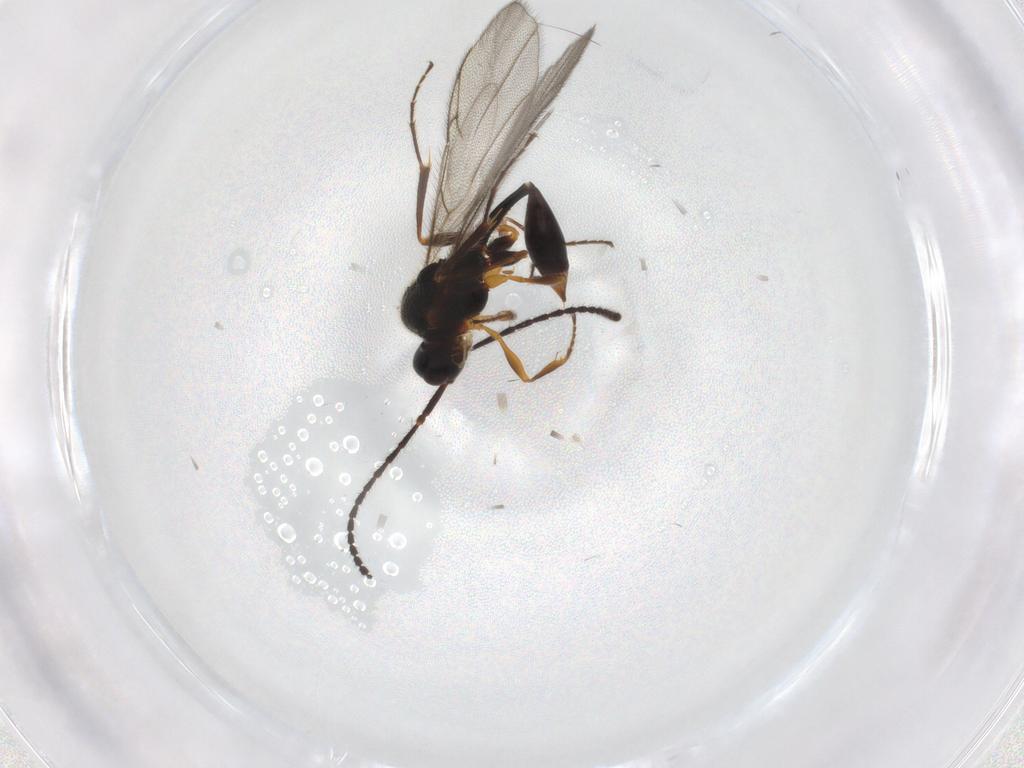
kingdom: Animalia
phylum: Arthropoda
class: Insecta
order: Hymenoptera
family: Diapriidae
